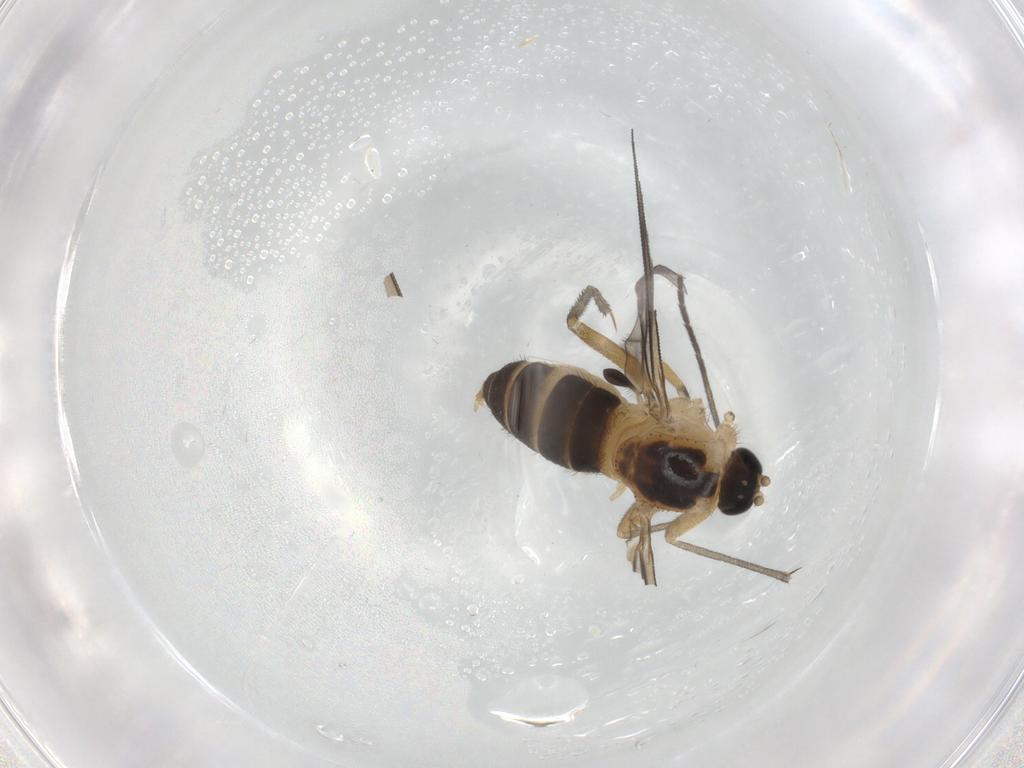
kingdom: Animalia
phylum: Arthropoda
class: Insecta
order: Diptera
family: Sciaridae
